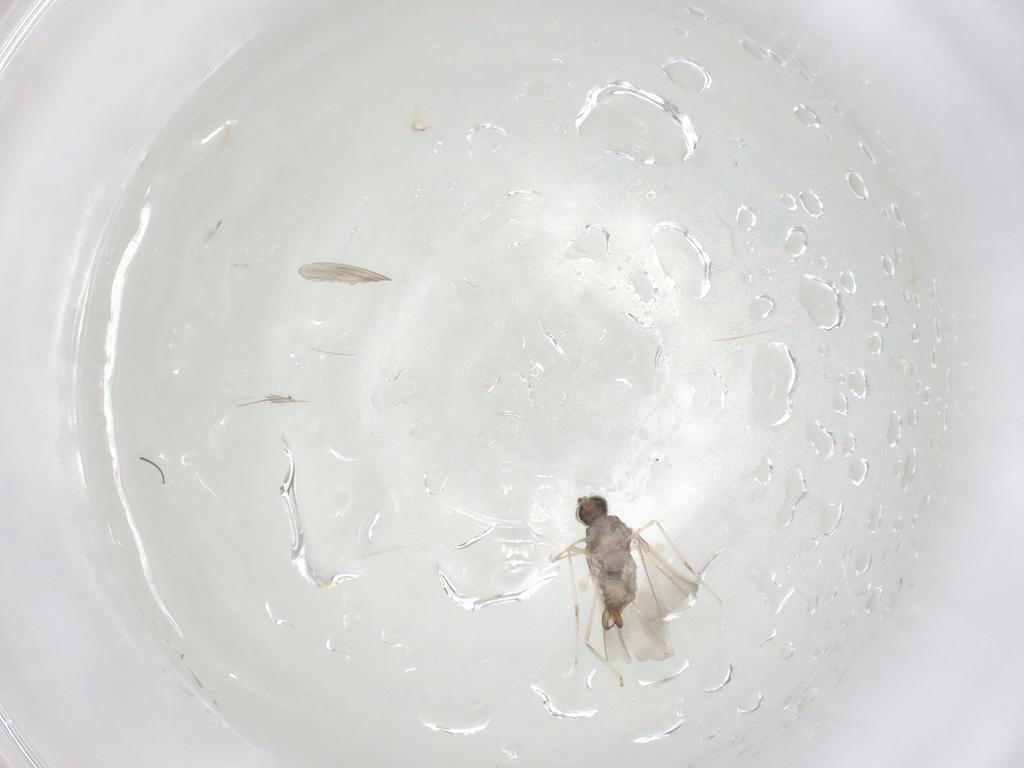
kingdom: Animalia
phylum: Arthropoda
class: Insecta
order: Diptera
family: Cecidomyiidae
